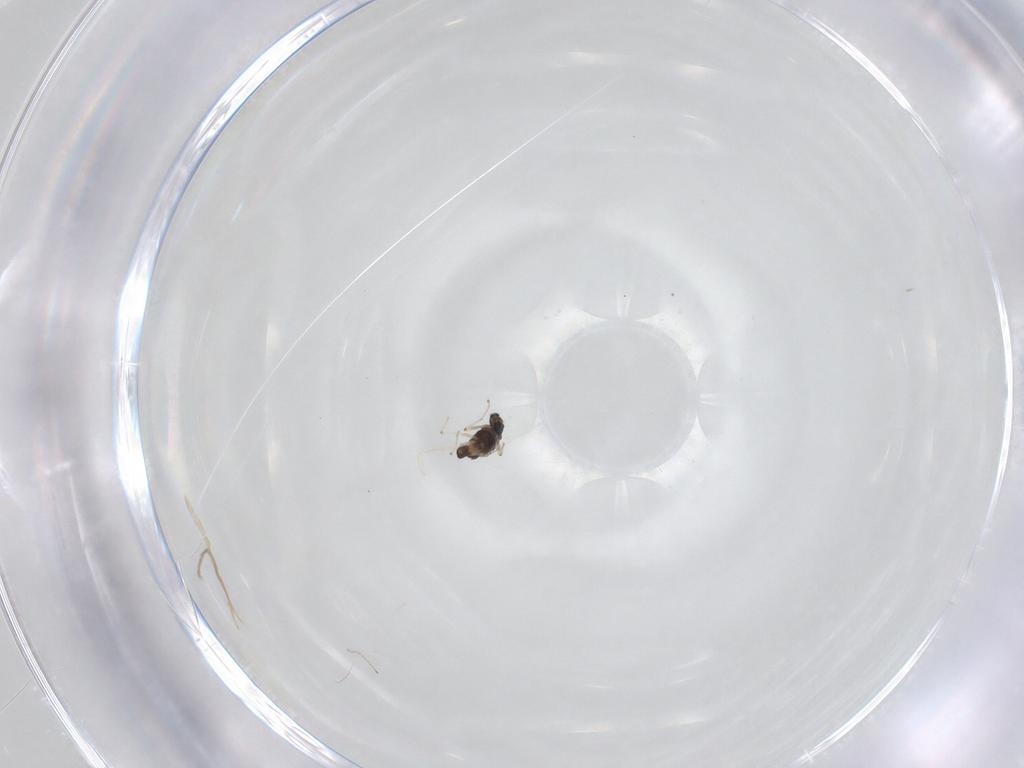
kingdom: Animalia
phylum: Arthropoda
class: Insecta
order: Diptera
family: Chironomidae
